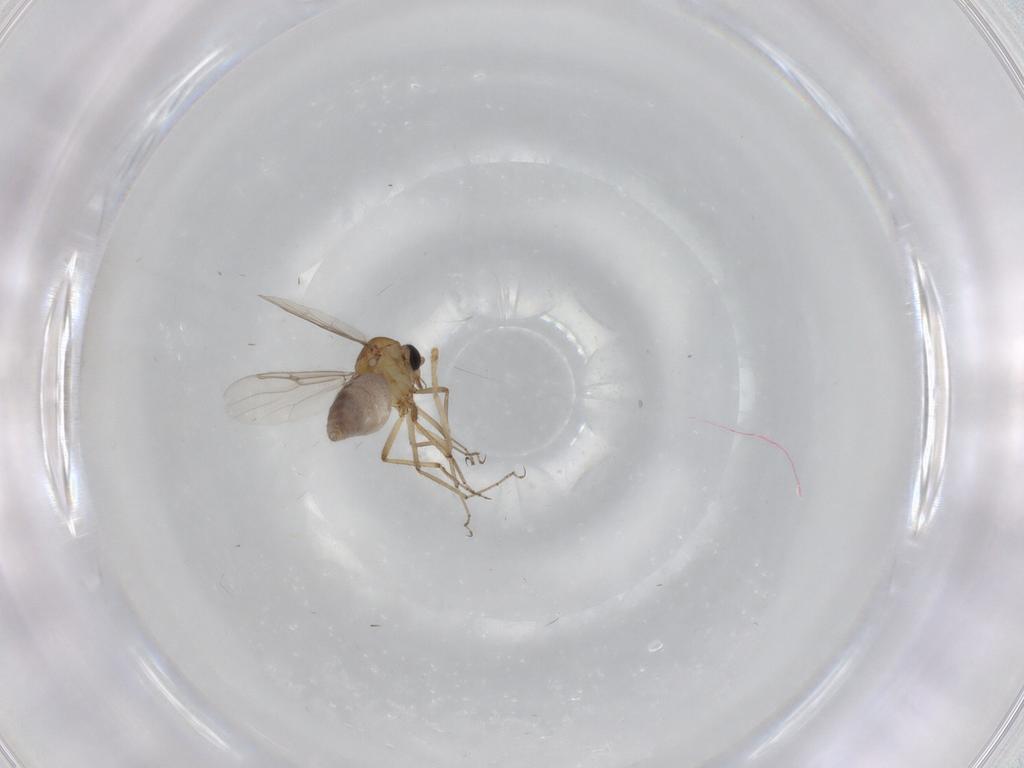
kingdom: Animalia
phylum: Arthropoda
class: Insecta
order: Diptera
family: Psychodidae
